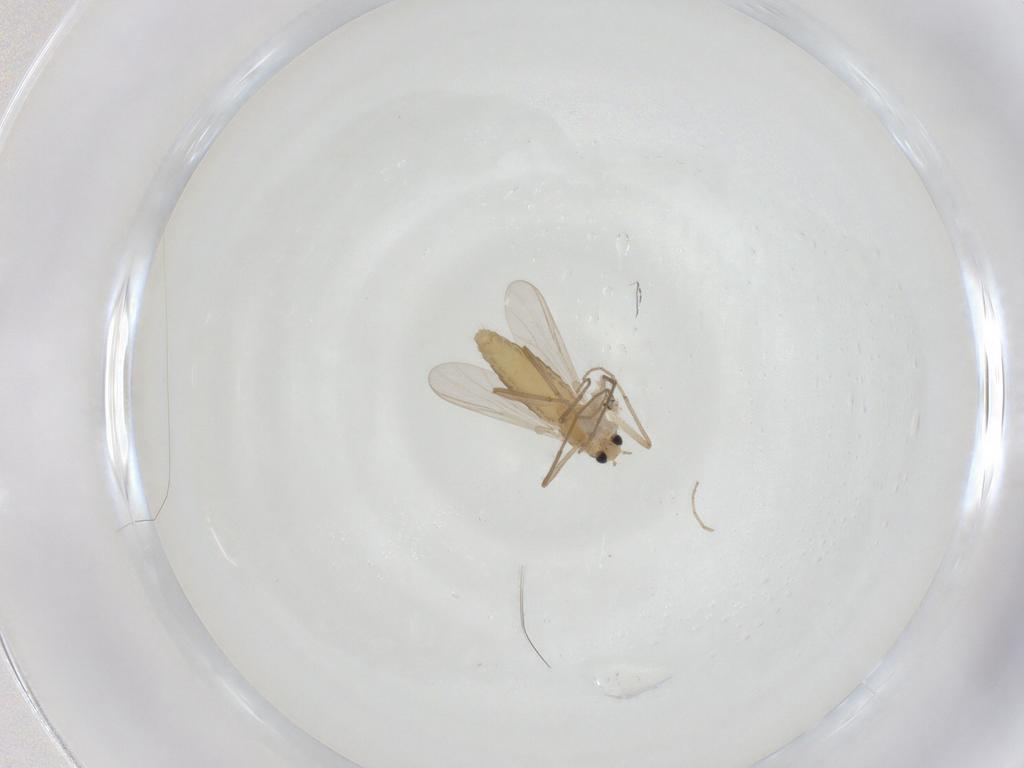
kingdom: Animalia
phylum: Arthropoda
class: Insecta
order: Diptera
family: Chironomidae
